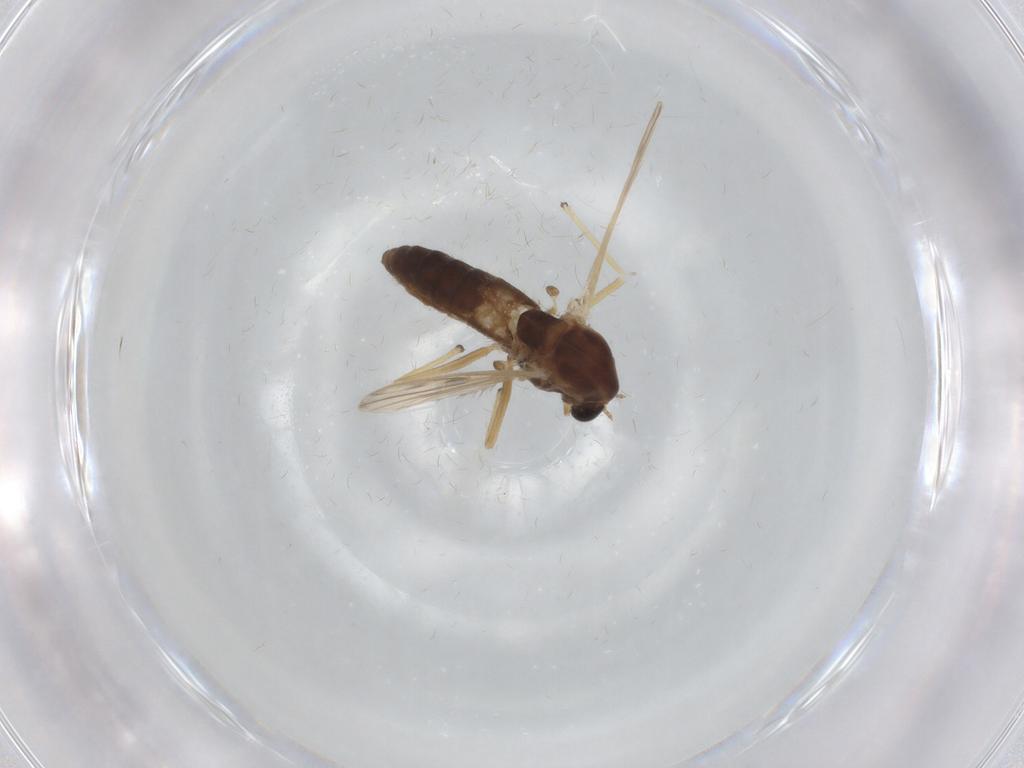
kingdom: Animalia
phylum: Arthropoda
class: Insecta
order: Diptera
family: Chironomidae
